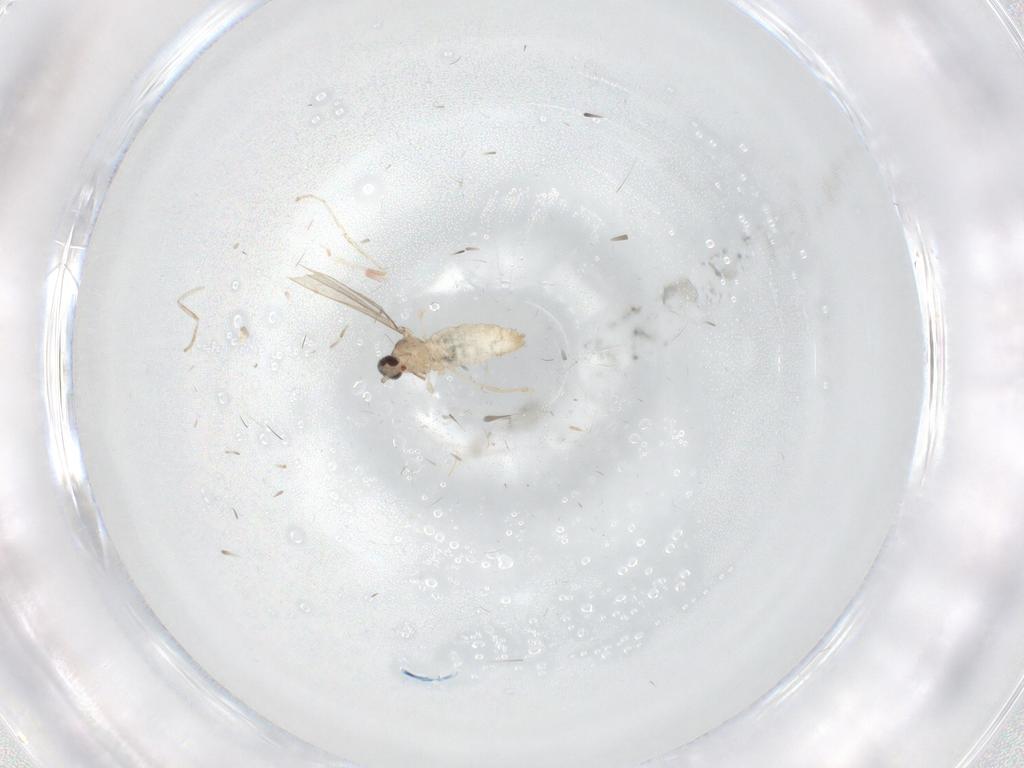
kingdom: Animalia
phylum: Arthropoda
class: Insecta
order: Diptera
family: Cecidomyiidae
